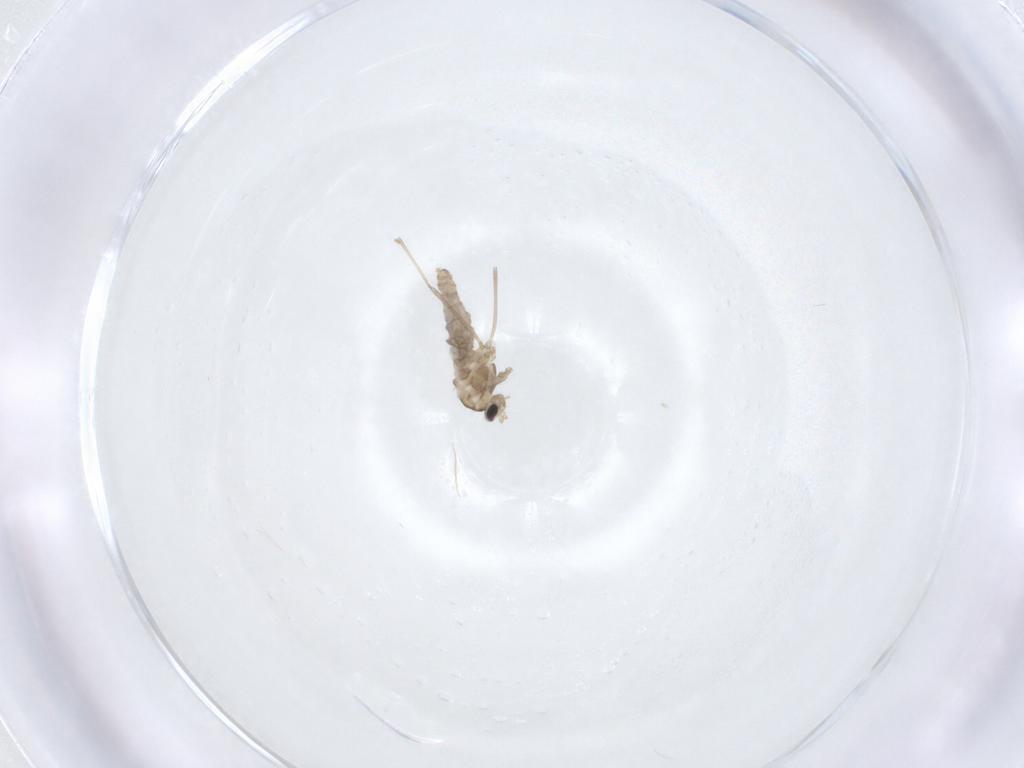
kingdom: Animalia
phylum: Arthropoda
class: Insecta
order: Diptera
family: Cecidomyiidae
